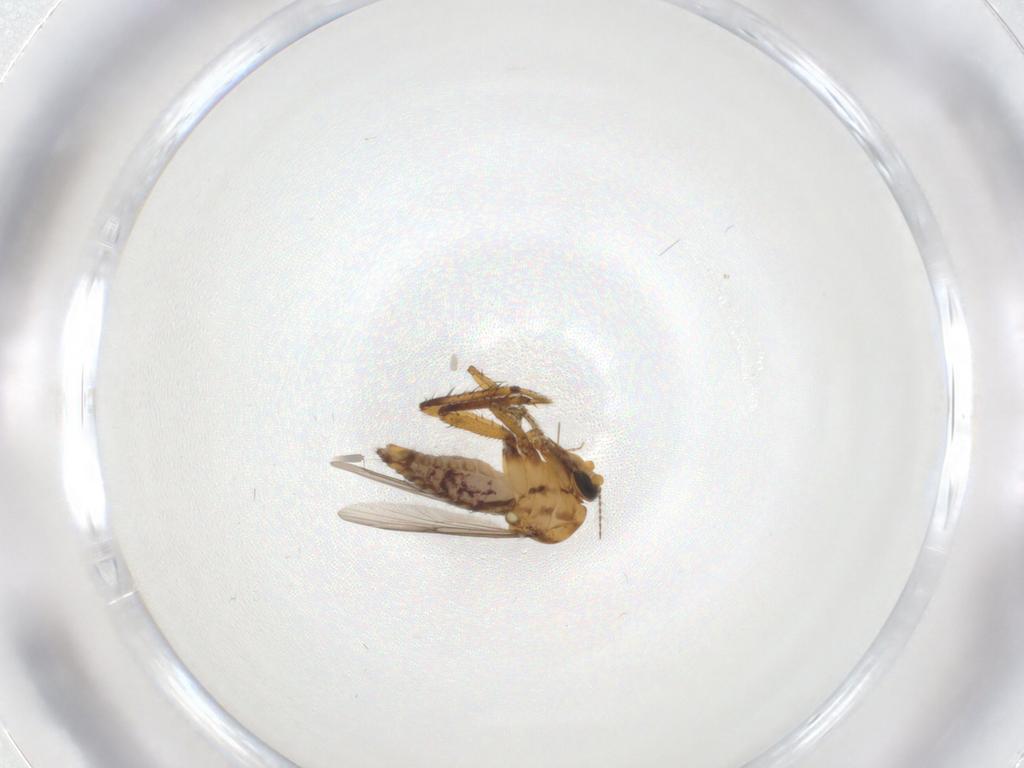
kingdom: Animalia
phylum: Arthropoda
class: Insecta
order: Diptera
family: Ceratopogonidae
